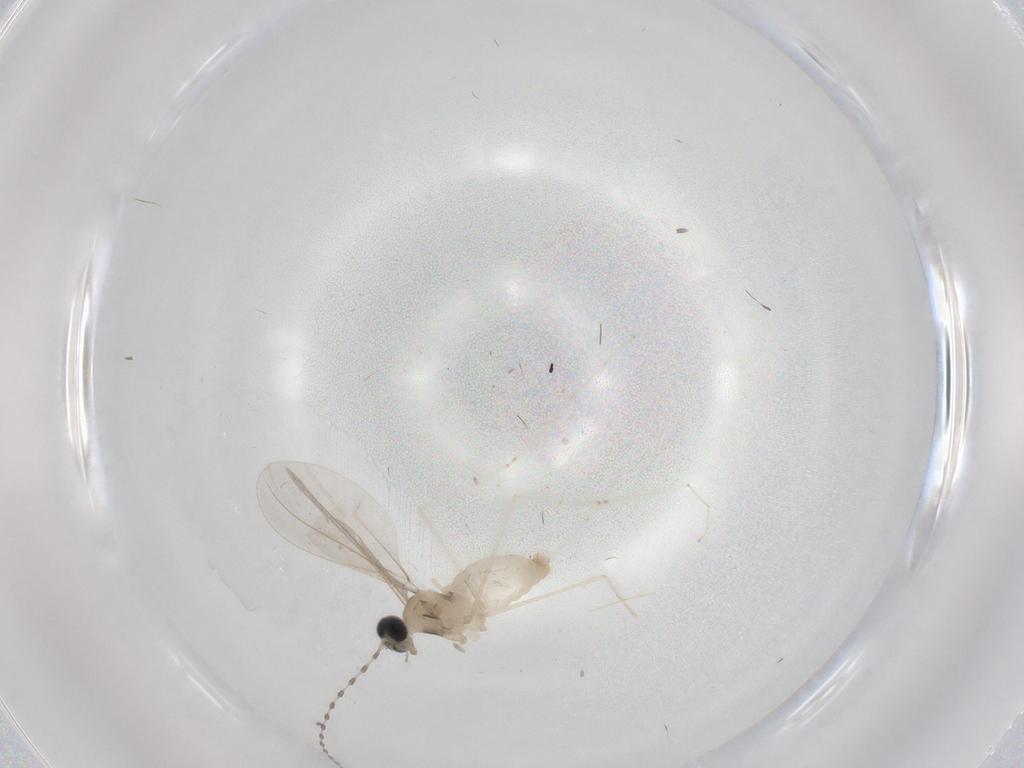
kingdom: Animalia
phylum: Arthropoda
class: Insecta
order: Diptera
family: Cecidomyiidae
